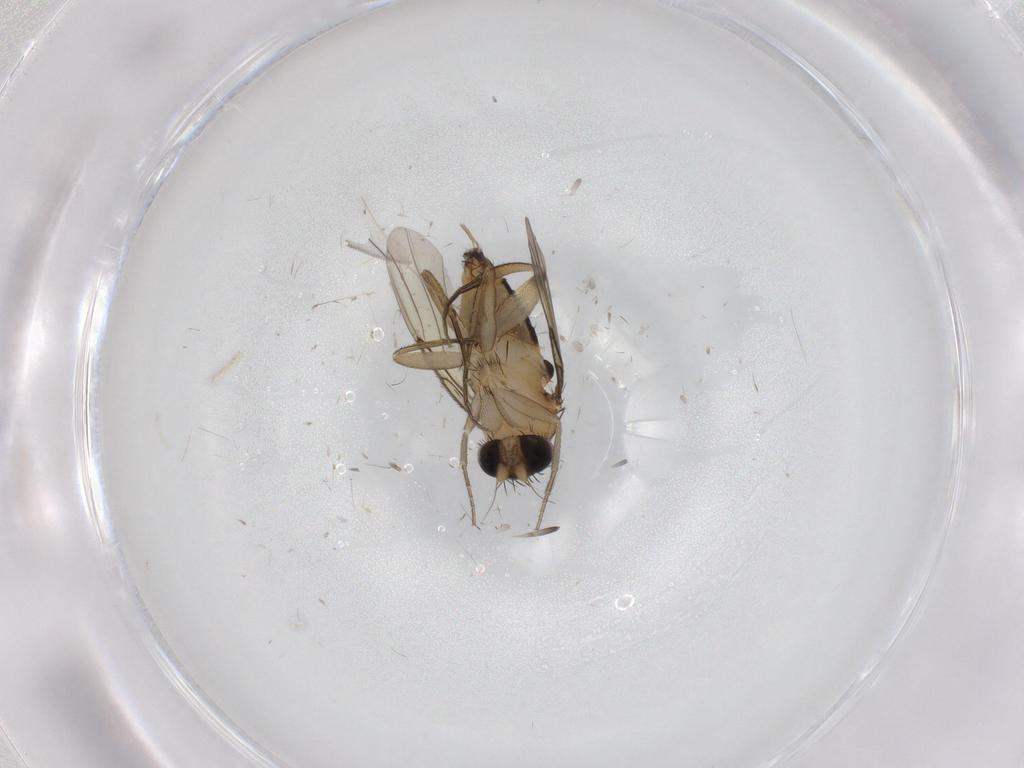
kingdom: Animalia
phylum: Arthropoda
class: Insecta
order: Diptera
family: Phoridae
